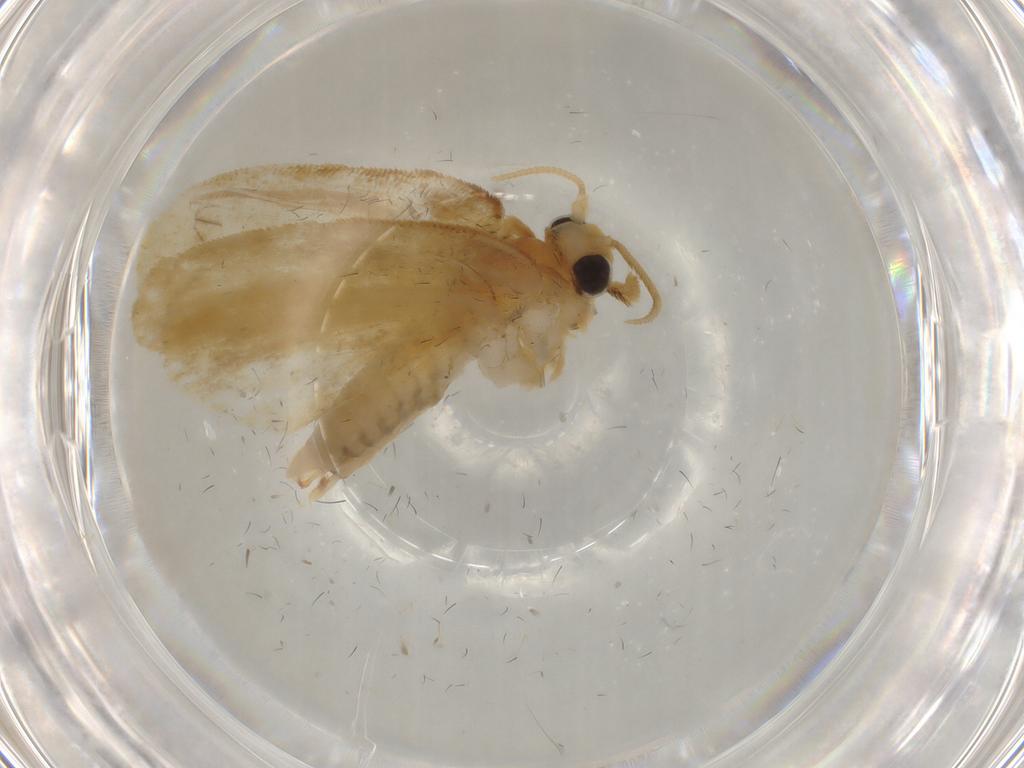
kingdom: Animalia
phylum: Arthropoda
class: Insecta
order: Lepidoptera
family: Psychidae
